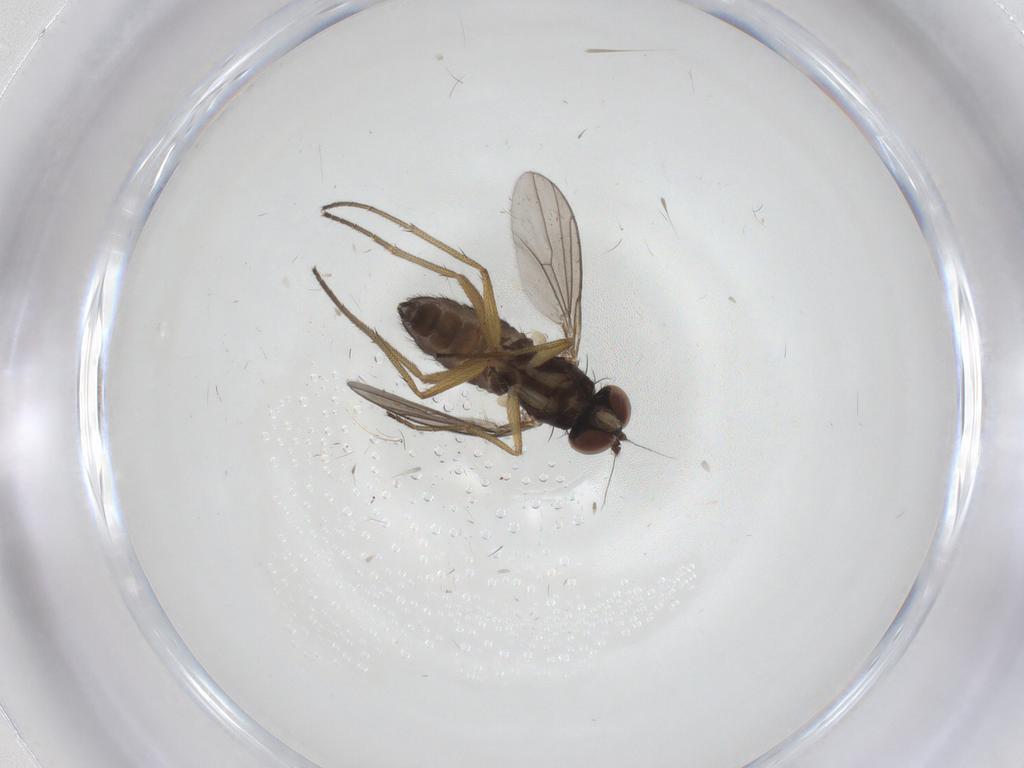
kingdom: Animalia
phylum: Arthropoda
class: Insecta
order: Diptera
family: Dolichopodidae
